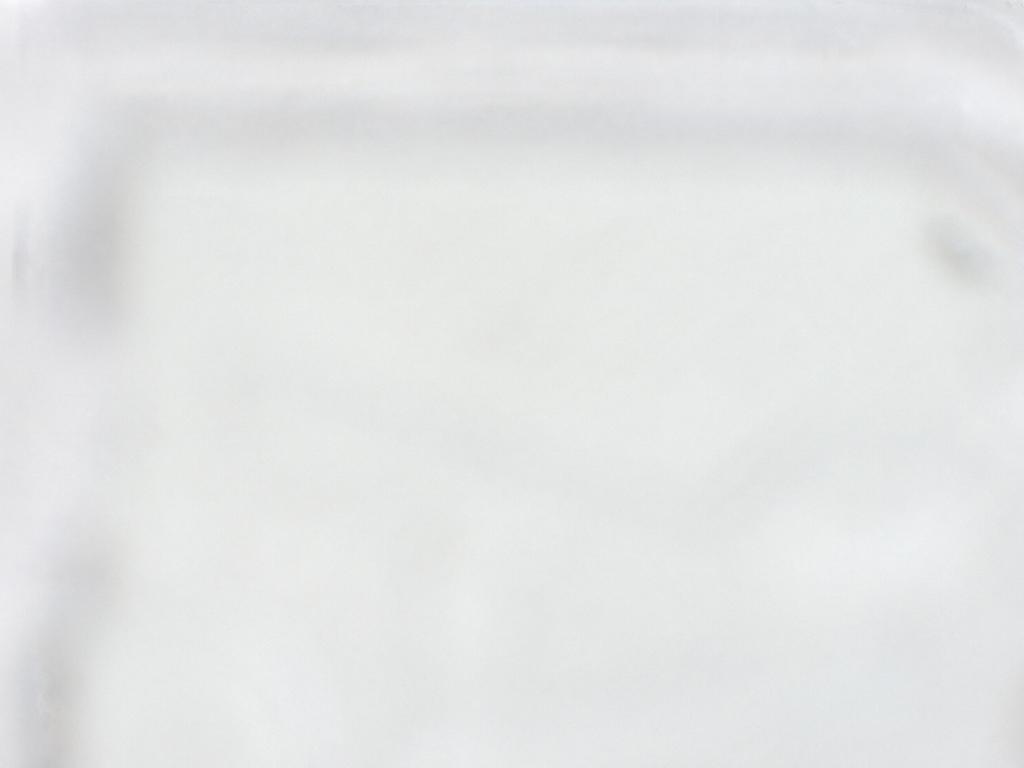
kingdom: Animalia
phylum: Arthropoda
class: Insecta
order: Diptera
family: Cecidomyiidae
